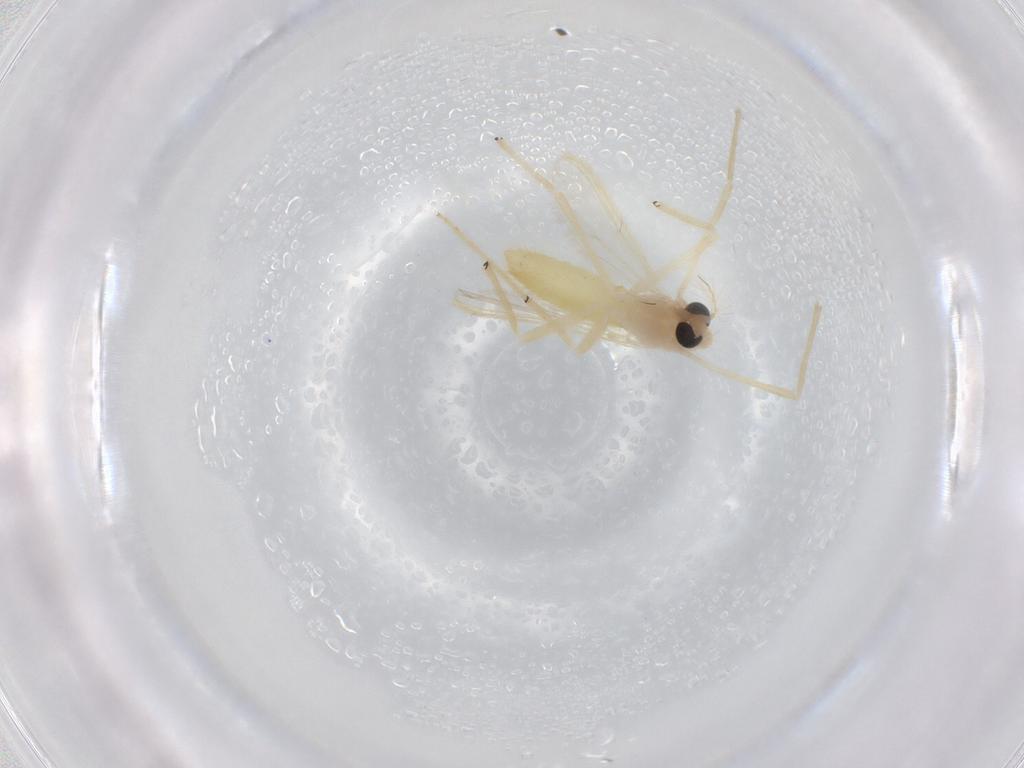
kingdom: Animalia
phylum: Arthropoda
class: Insecta
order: Diptera
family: Chironomidae
